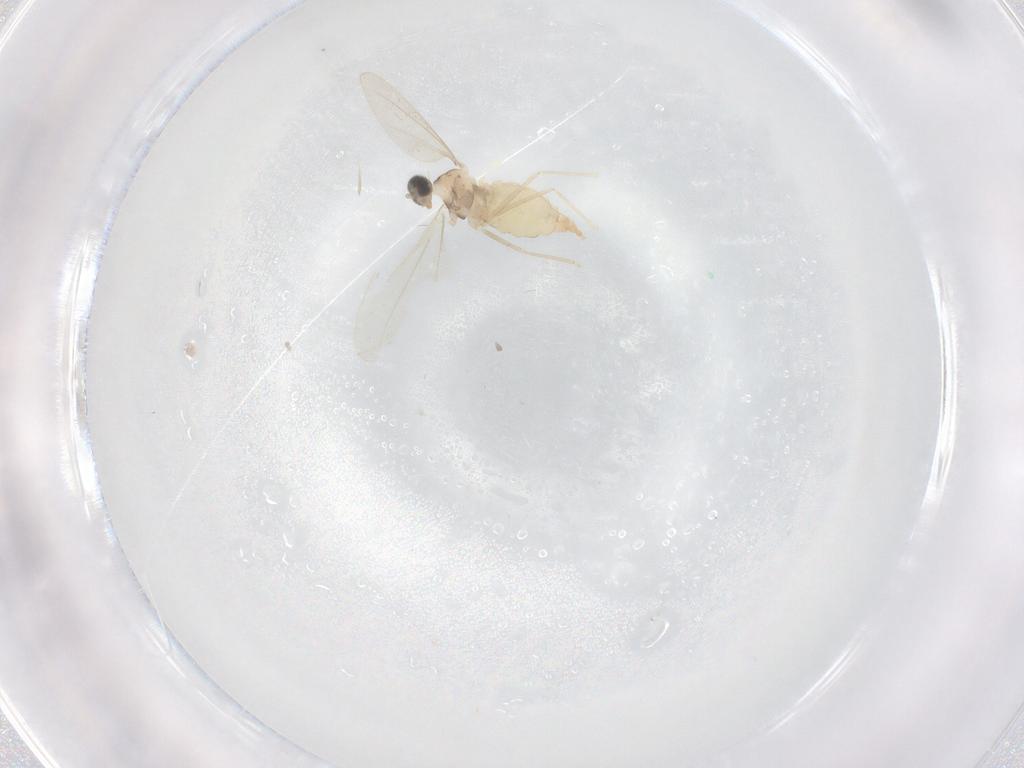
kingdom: Animalia
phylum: Arthropoda
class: Insecta
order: Diptera
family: Cecidomyiidae
